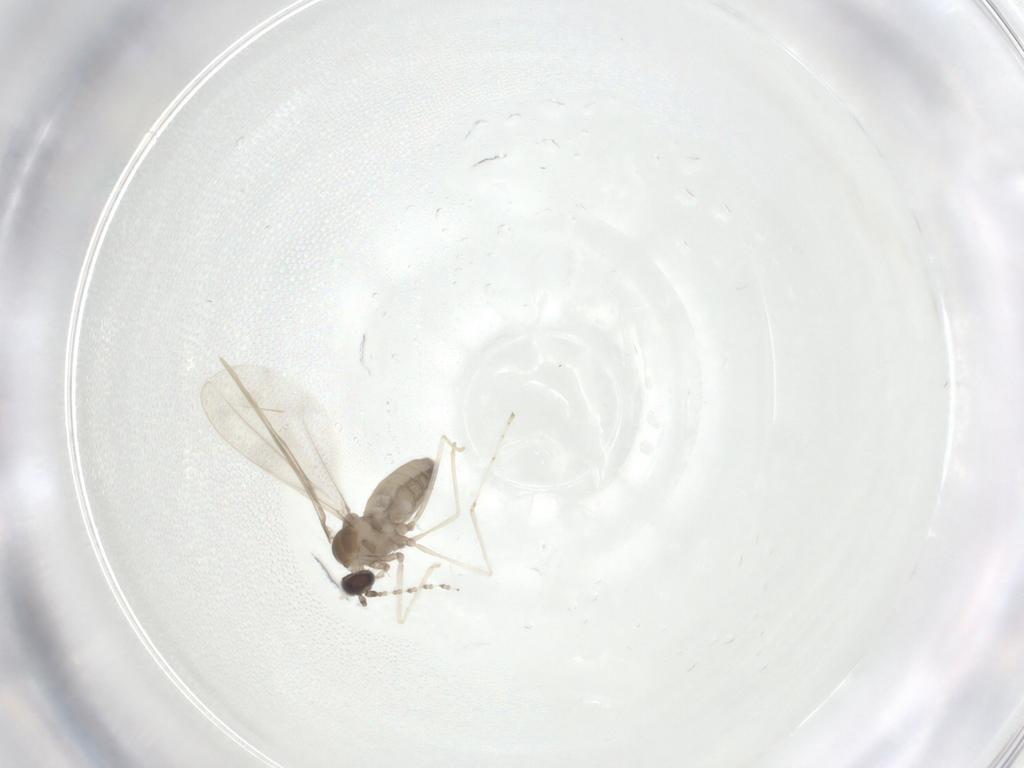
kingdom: Animalia
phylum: Arthropoda
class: Insecta
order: Diptera
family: Cecidomyiidae
